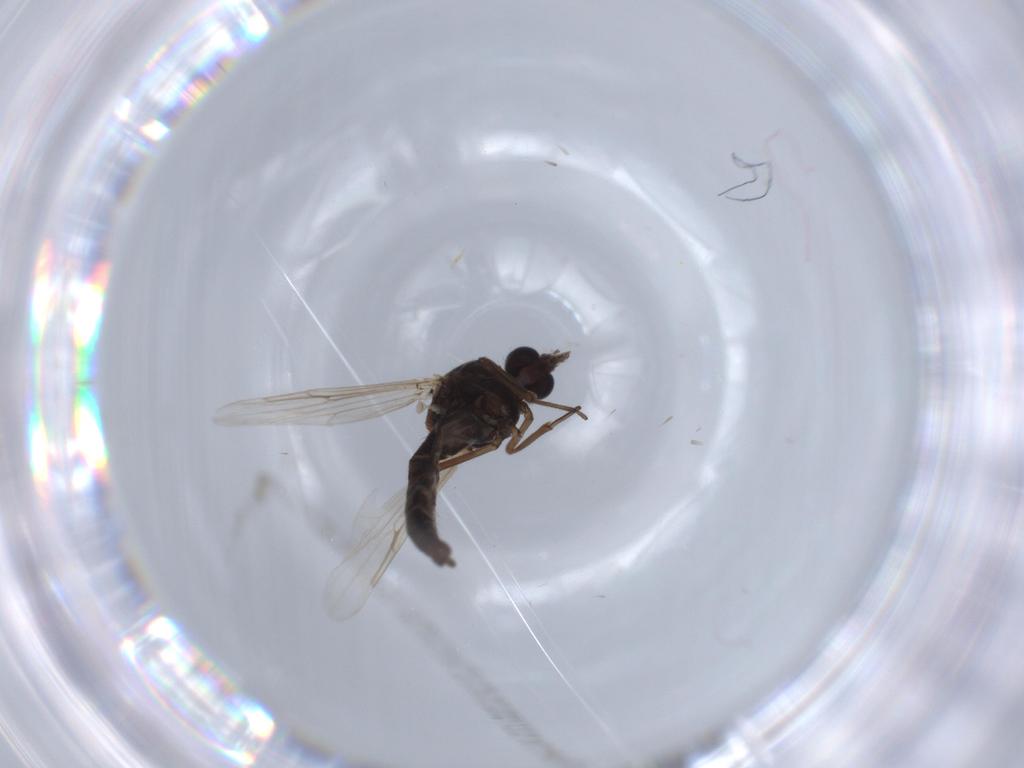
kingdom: Animalia
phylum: Arthropoda
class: Insecta
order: Diptera
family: Ceratopogonidae
